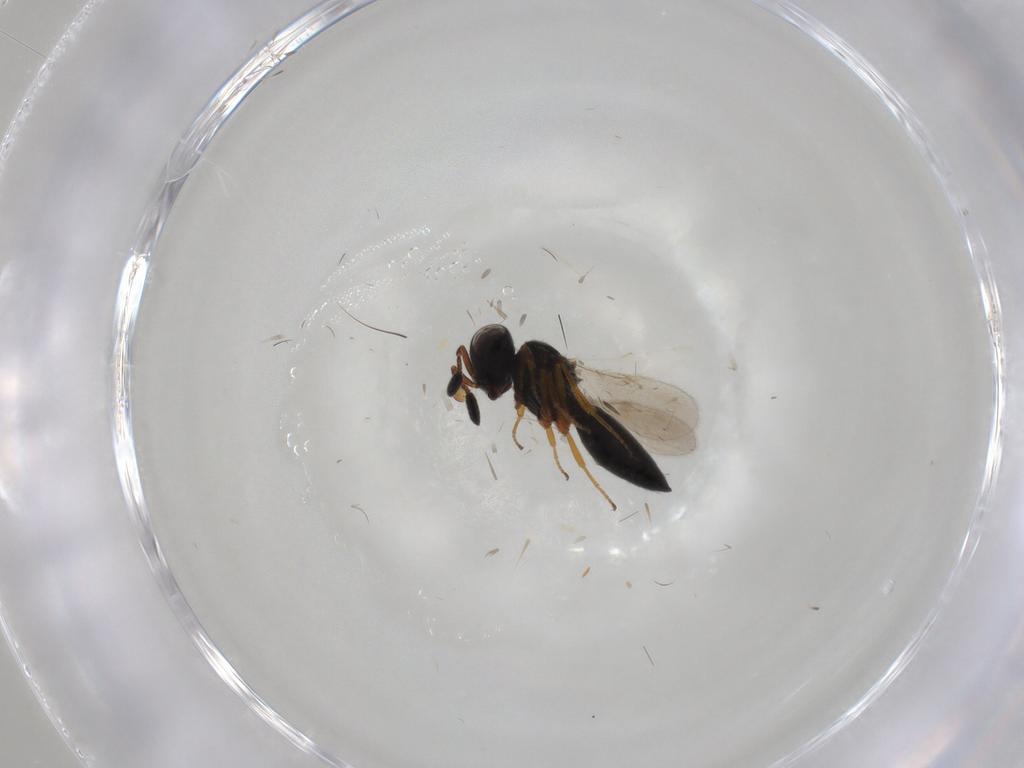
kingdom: Animalia
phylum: Arthropoda
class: Insecta
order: Hymenoptera
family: Scelionidae
